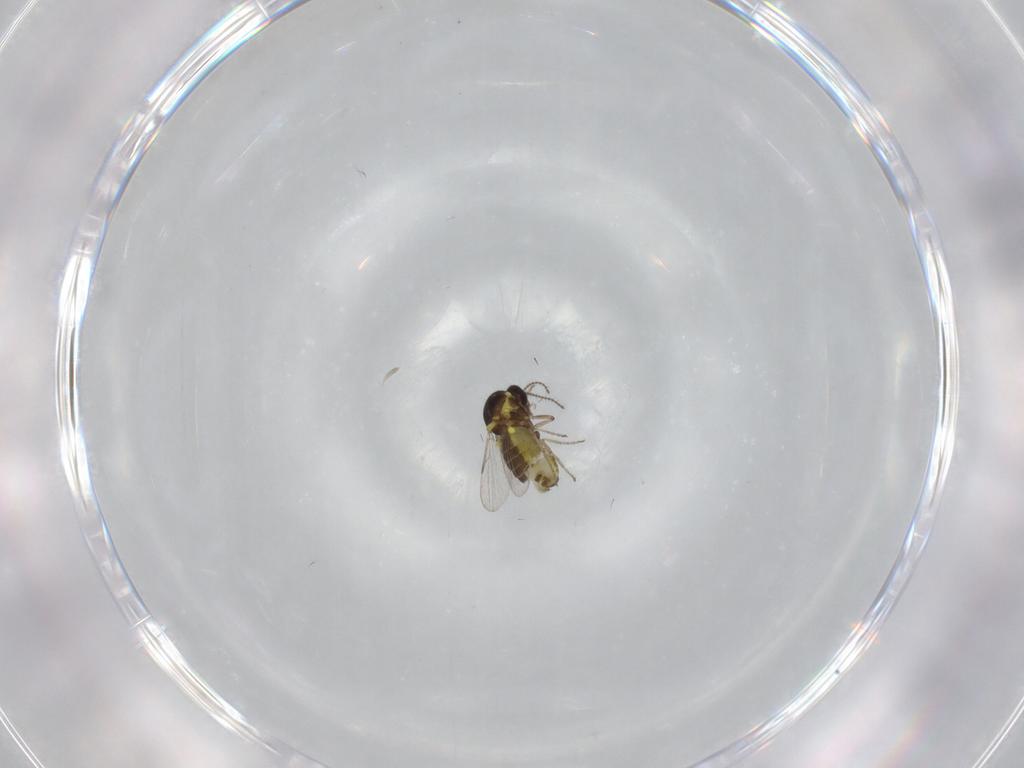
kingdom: Animalia
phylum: Arthropoda
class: Insecta
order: Diptera
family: Ceratopogonidae
